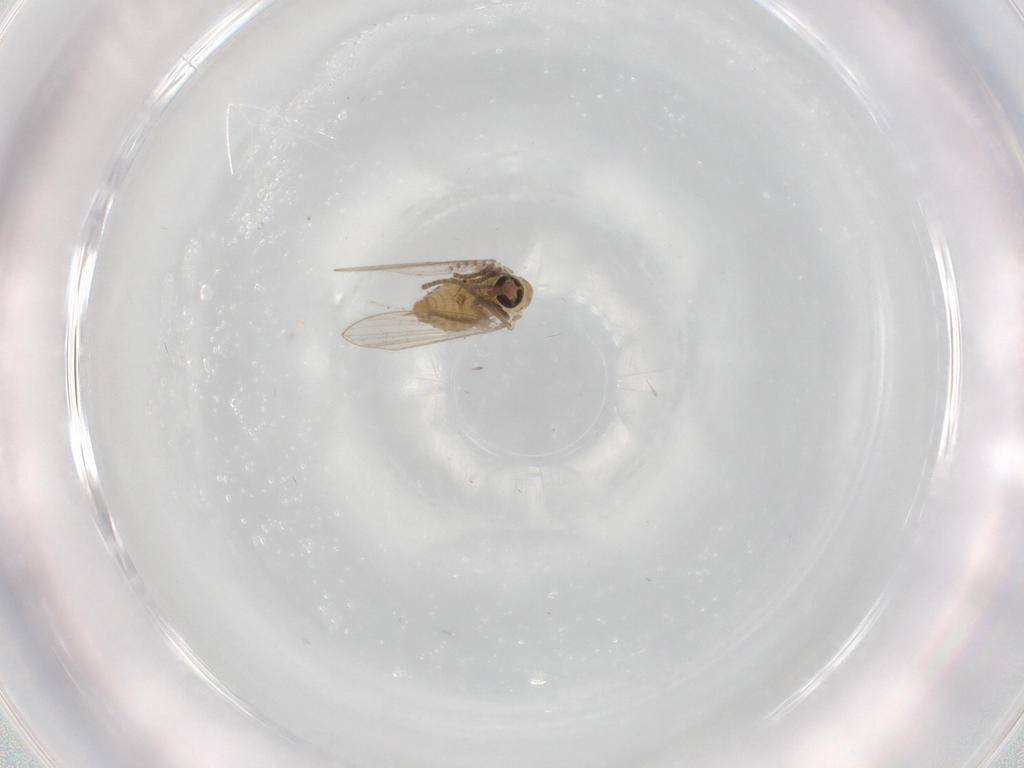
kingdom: Animalia
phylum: Arthropoda
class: Insecta
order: Diptera
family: Psychodidae
